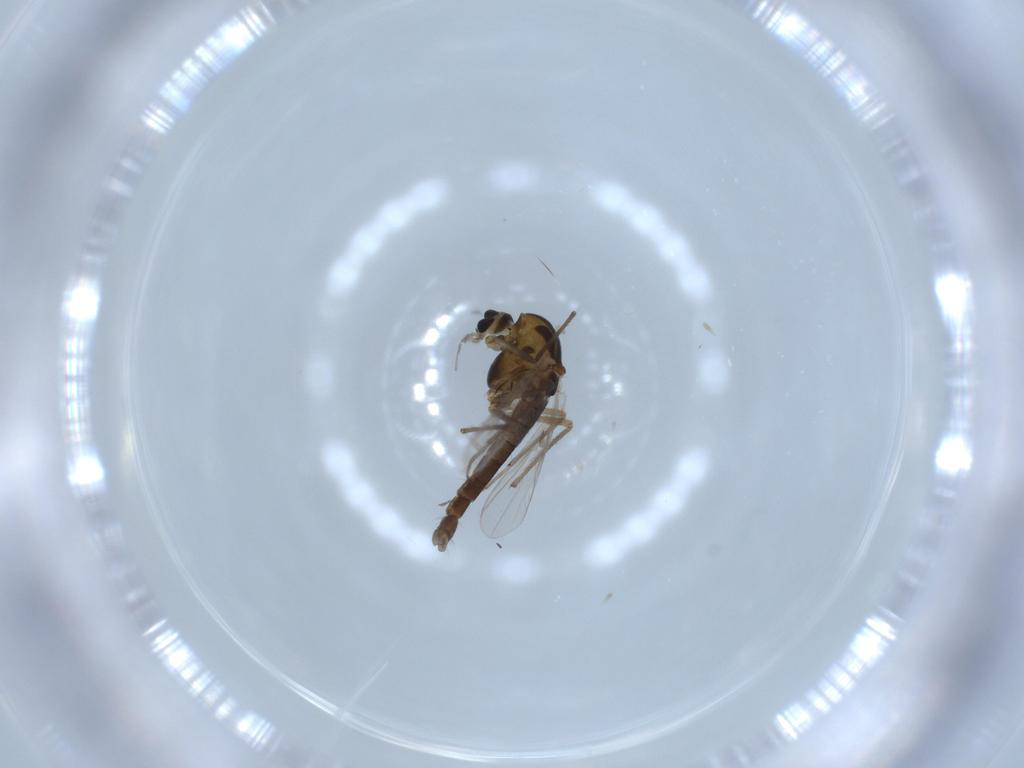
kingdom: Animalia
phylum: Arthropoda
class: Insecta
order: Diptera
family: Chironomidae
